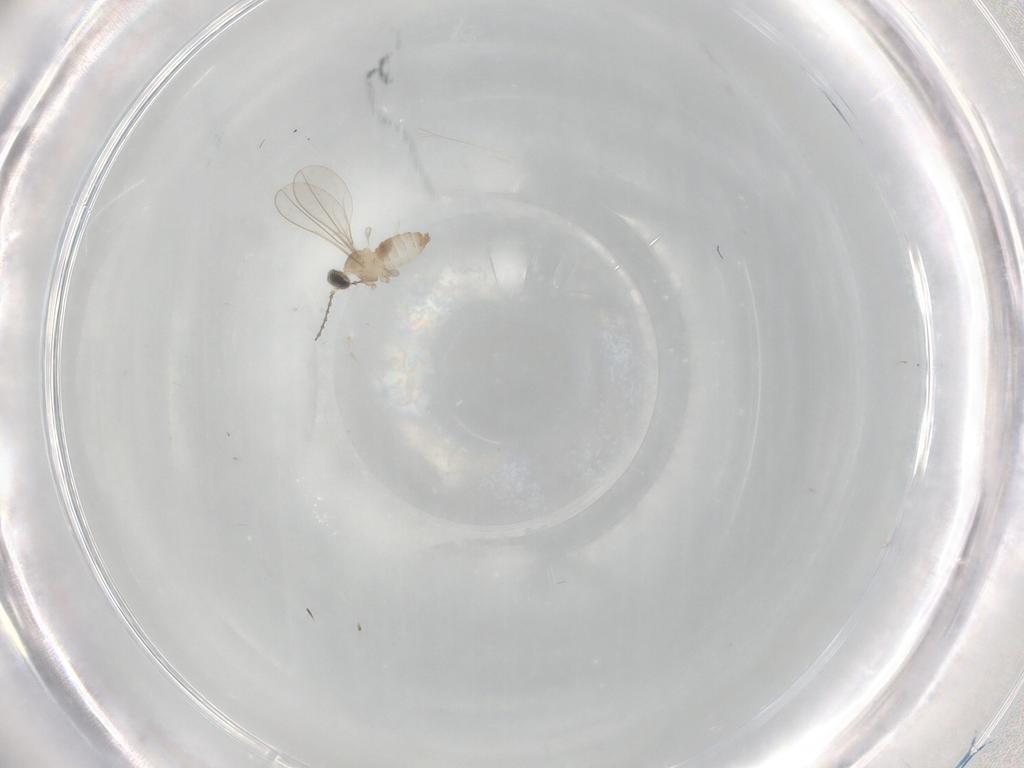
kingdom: Animalia
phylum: Arthropoda
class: Insecta
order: Diptera
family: Cecidomyiidae
